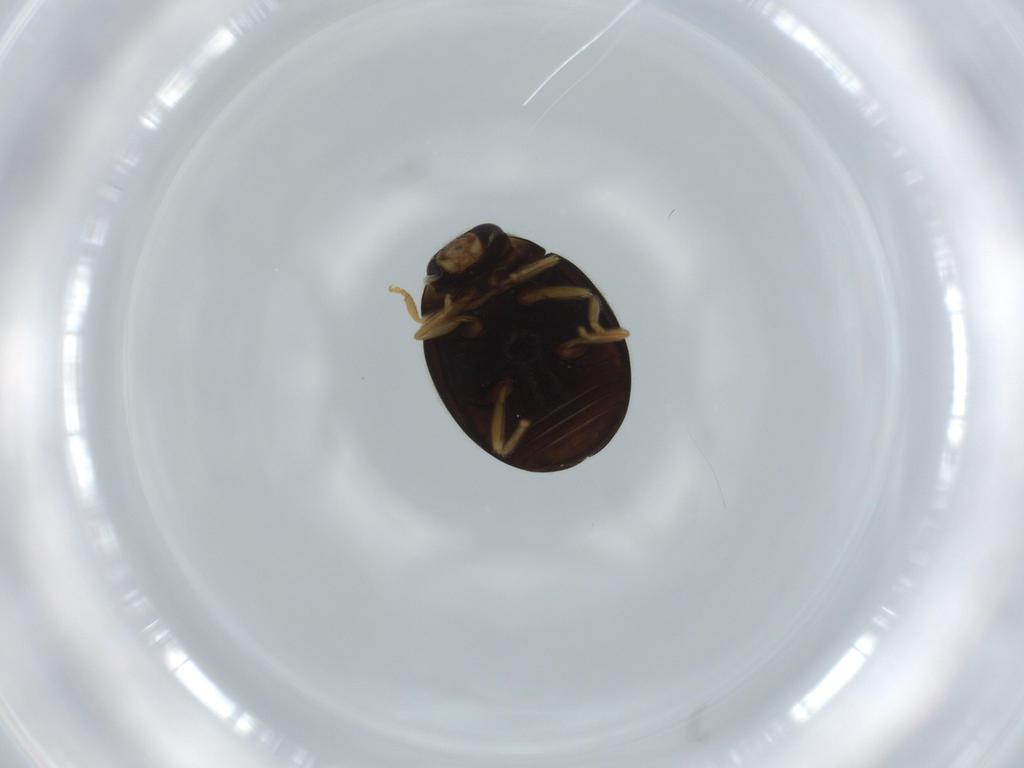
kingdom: Animalia
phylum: Arthropoda
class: Insecta
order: Coleoptera
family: Coccinellidae
